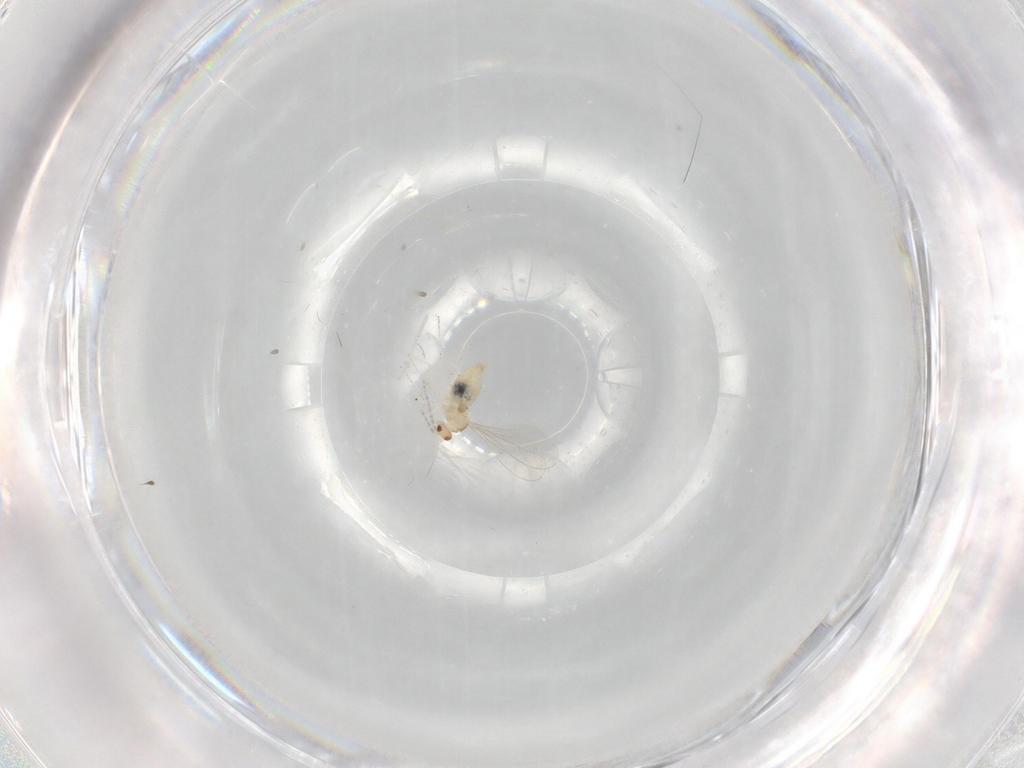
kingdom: Animalia
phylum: Arthropoda
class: Insecta
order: Diptera
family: Cecidomyiidae
